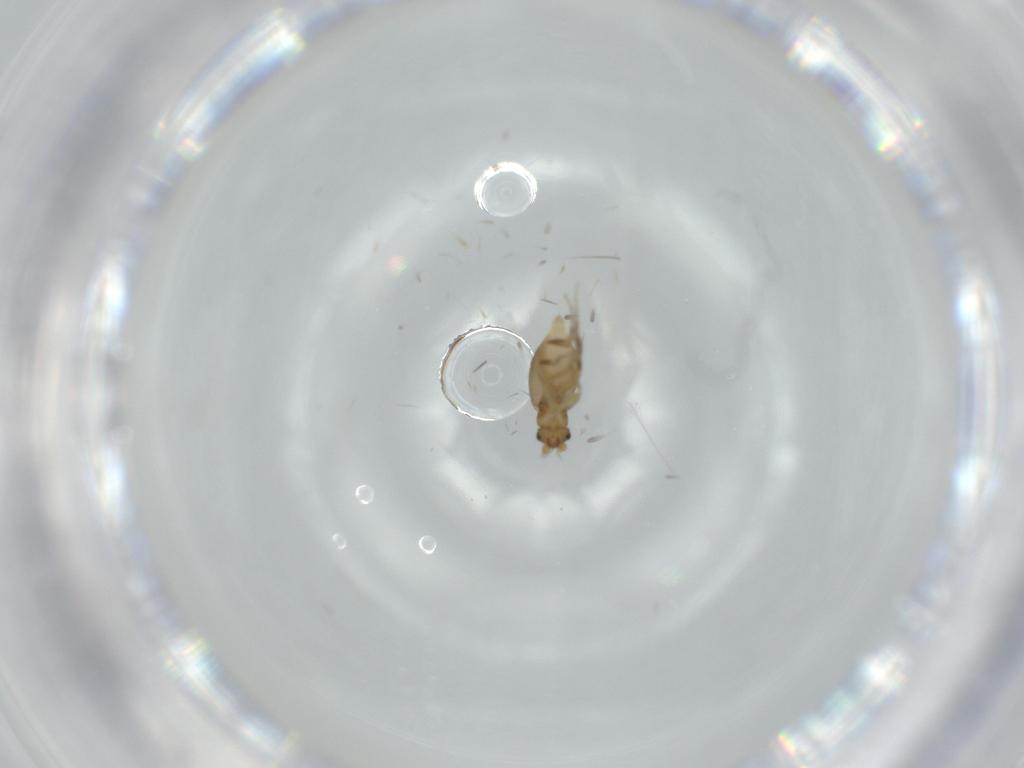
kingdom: Animalia
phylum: Arthropoda
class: Insecta
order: Diptera
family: Phoridae
